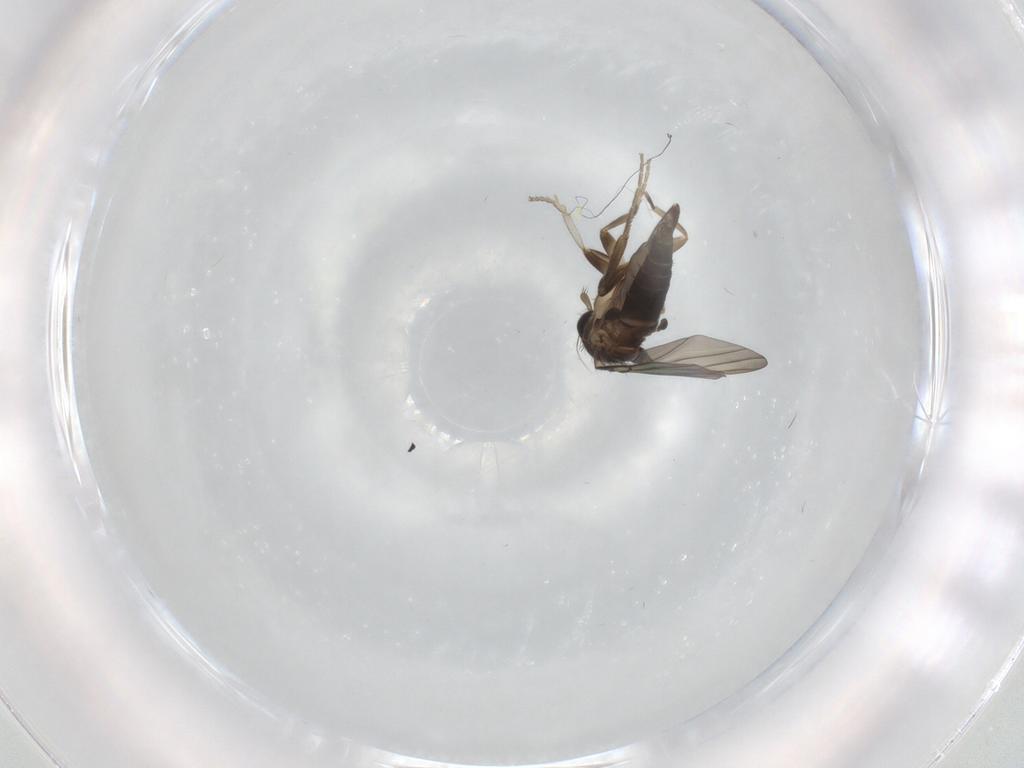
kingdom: Animalia
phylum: Arthropoda
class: Insecta
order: Diptera
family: Phoridae
